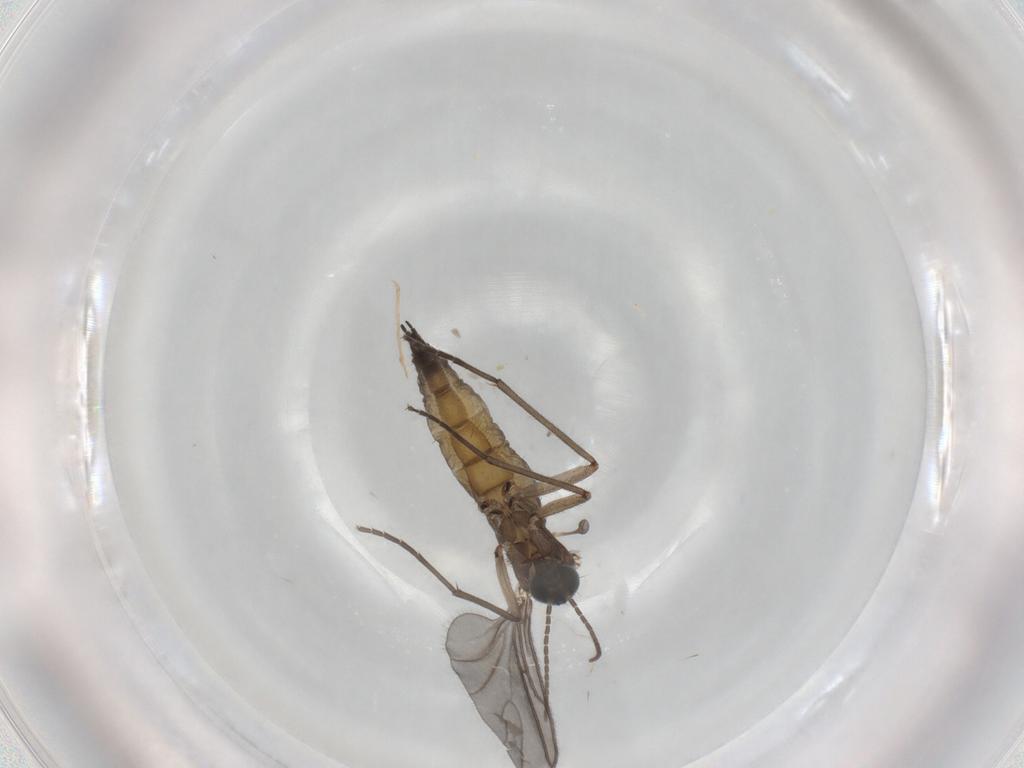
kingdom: Animalia
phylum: Arthropoda
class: Insecta
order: Diptera
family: Sciaridae
